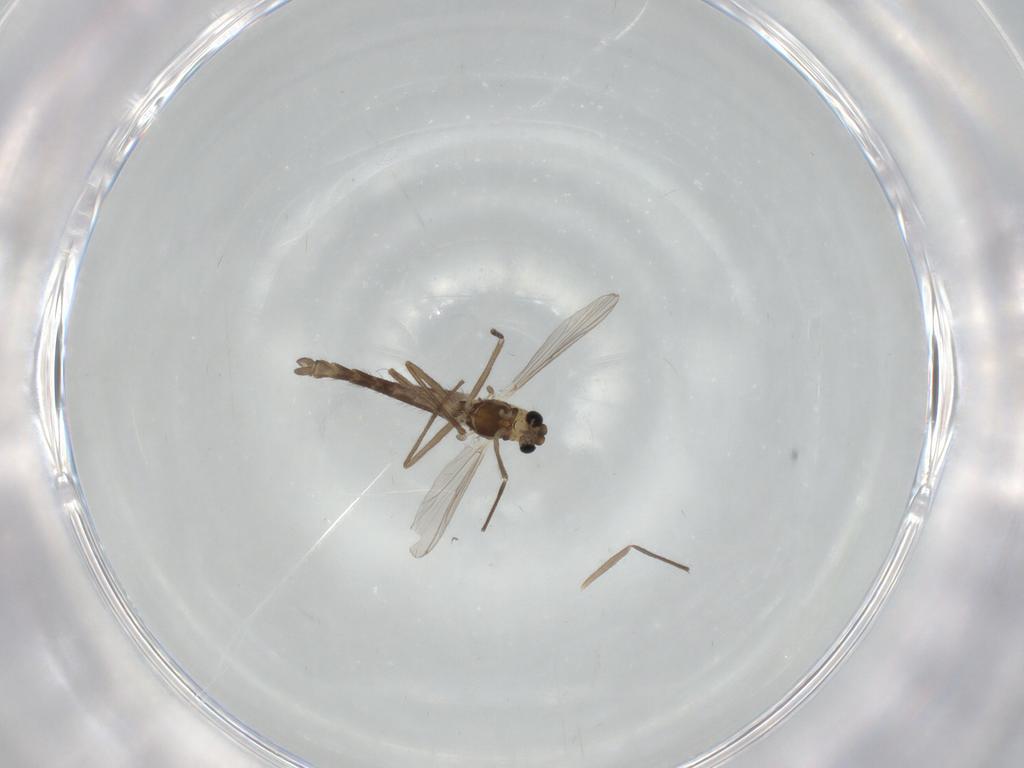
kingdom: Animalia
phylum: Arthropoda
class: Insecta
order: Diptera
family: Chironomidae
